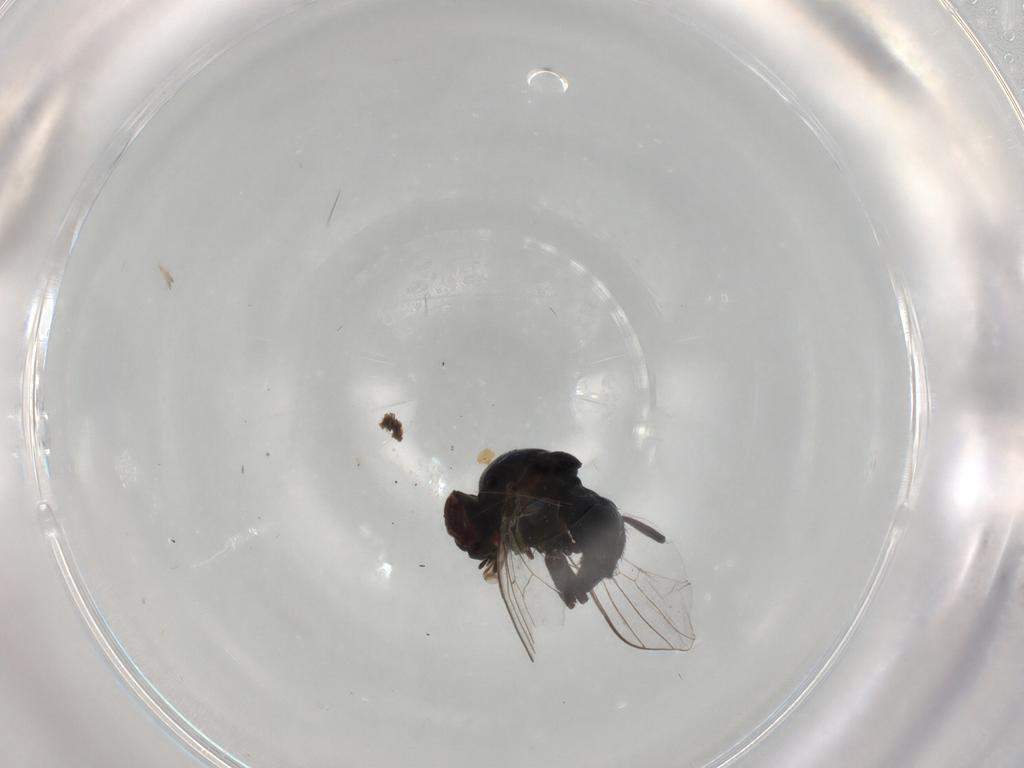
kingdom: Animalia
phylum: Arthropoda
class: Insecta
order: Diptera
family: Agromyzidae
